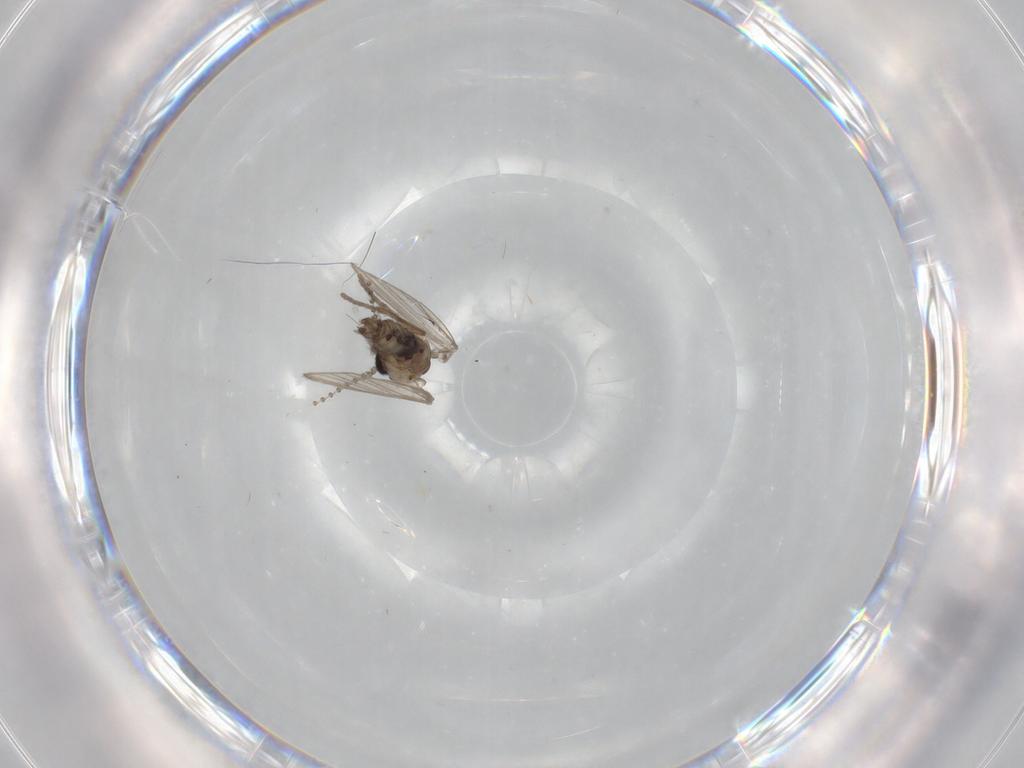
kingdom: Animalia
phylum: Arthropoda
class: Insecta
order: Diptera
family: Psychodidae
